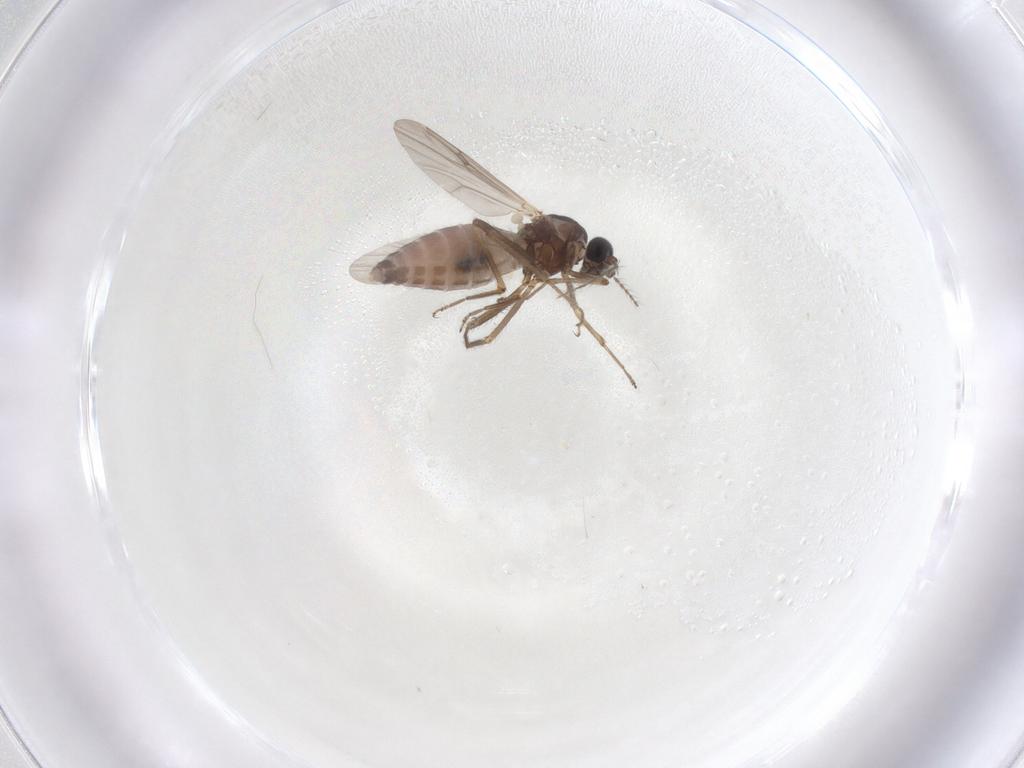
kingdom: Animalia
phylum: Arthropoda
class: Insecta
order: Diptera
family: Ceratopogonidae
